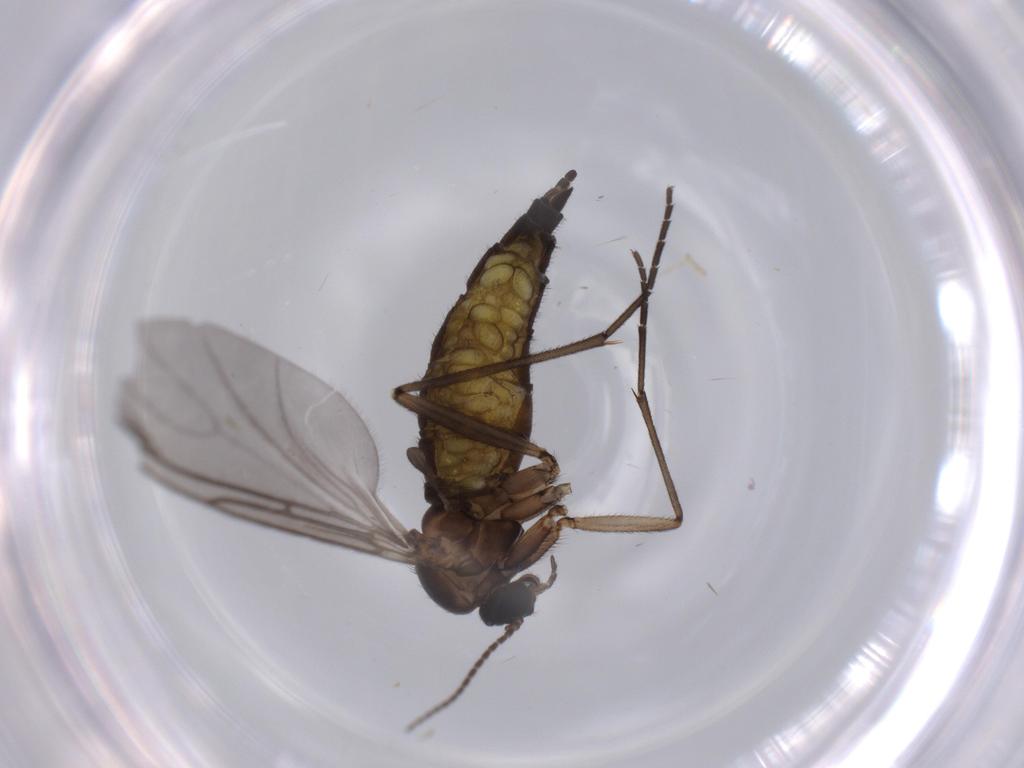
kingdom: Animalia
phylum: Arthropoda
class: Insecta
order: Diptera
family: Sciaridae
